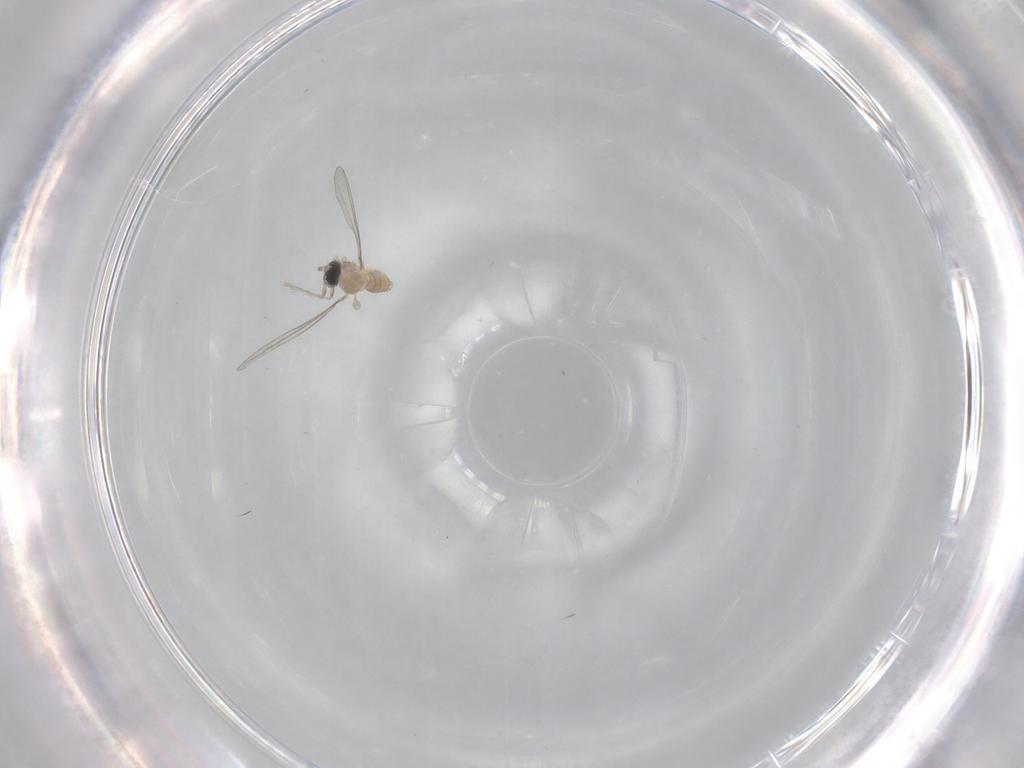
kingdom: Animalia
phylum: Arthropoda
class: Insecta
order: Diptera
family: Cecidomyiidae
